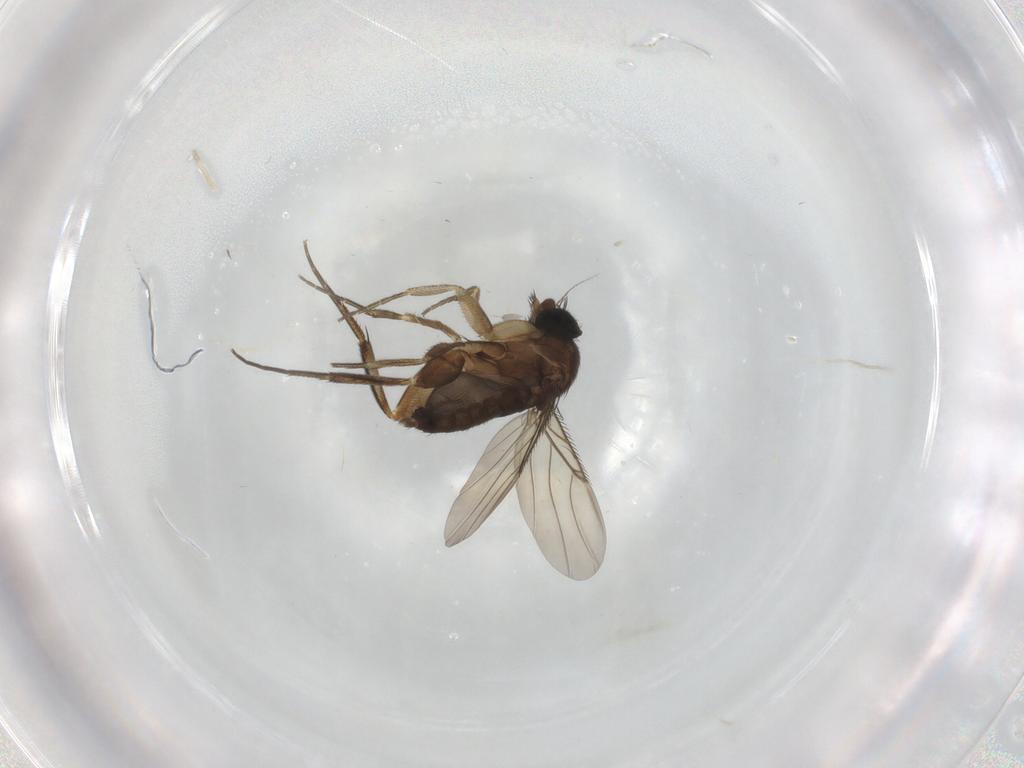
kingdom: Animalia
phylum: Arthropoda
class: Insecta
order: Diptera
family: Phoridae
